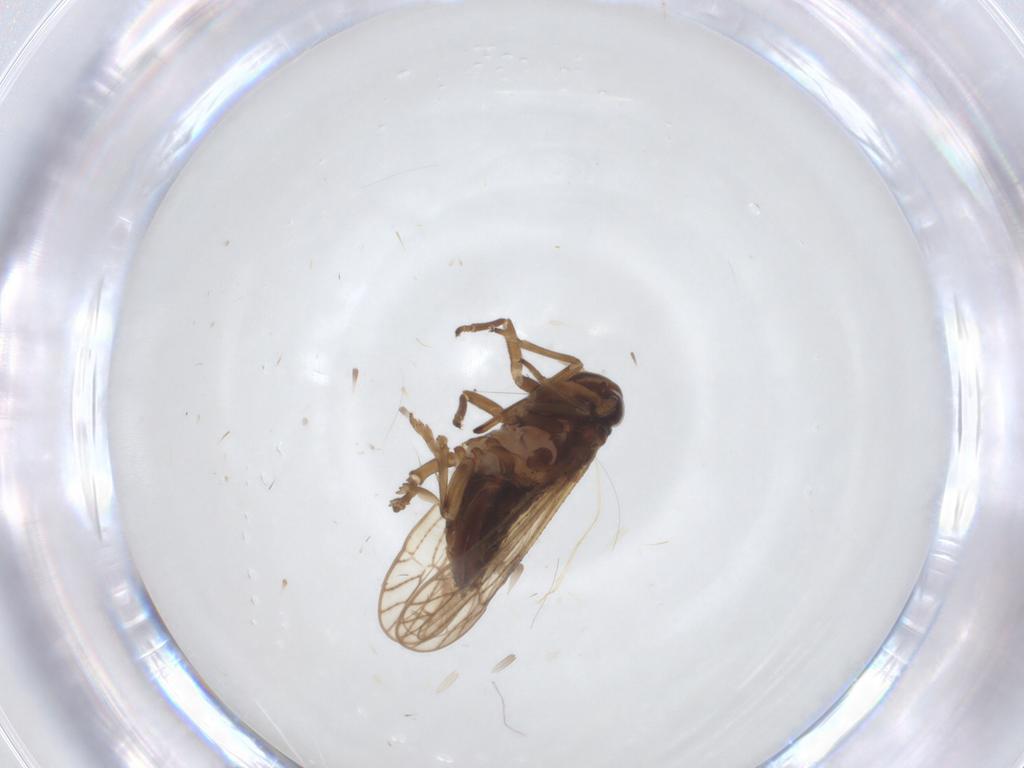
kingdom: Animalia
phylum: Arthropoda
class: Insecta
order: Hemiptera
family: Delphacidae
